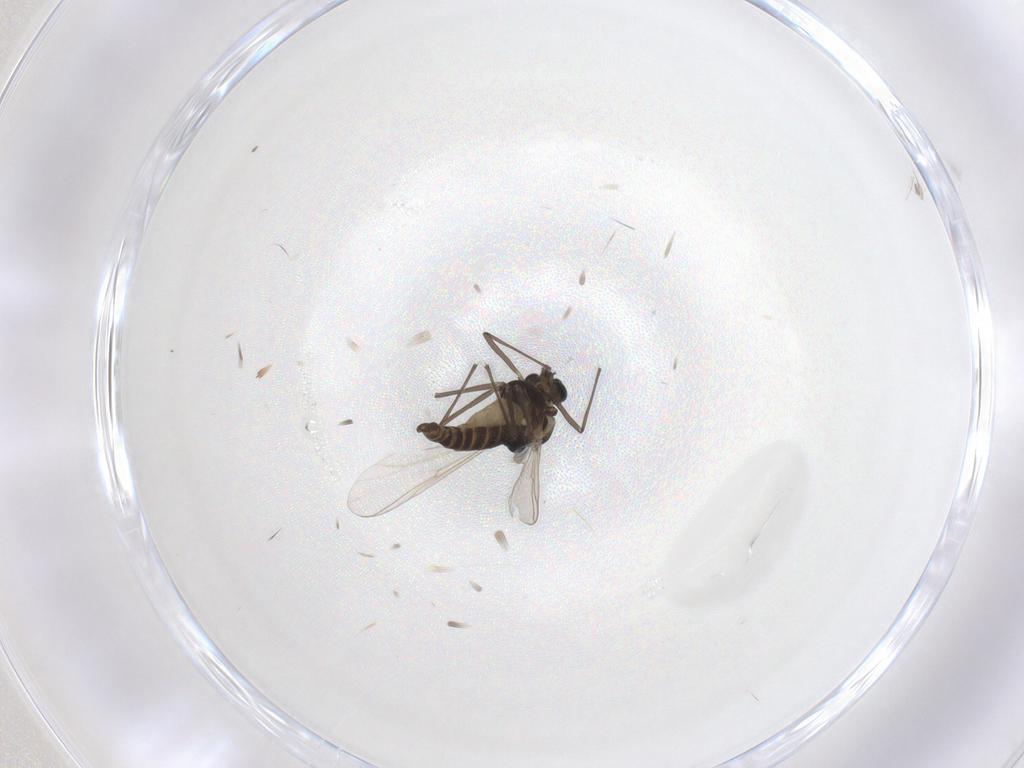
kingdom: Animalia
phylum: Arthropoda
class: Insecta
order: Diptera
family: Chironomidae
